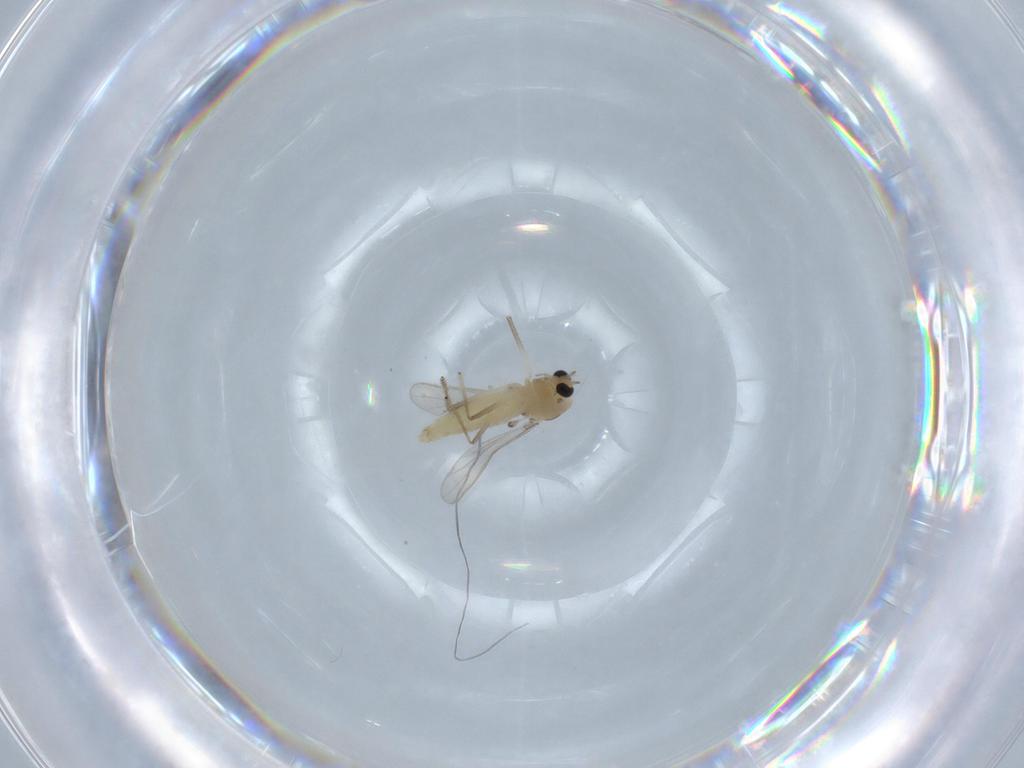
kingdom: Animalia
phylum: Arthropoda
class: Insecta
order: Diptera
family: Chironomidae
